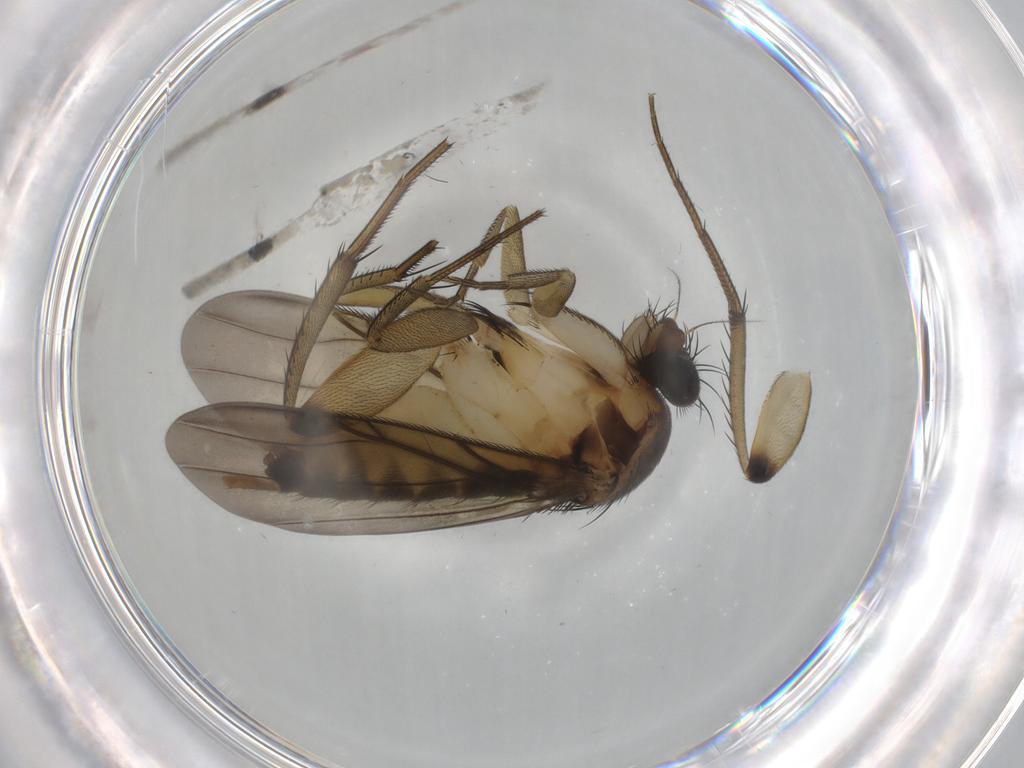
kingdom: Animalia
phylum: Arthropoda
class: Insecta
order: Diptera
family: Phoridae
